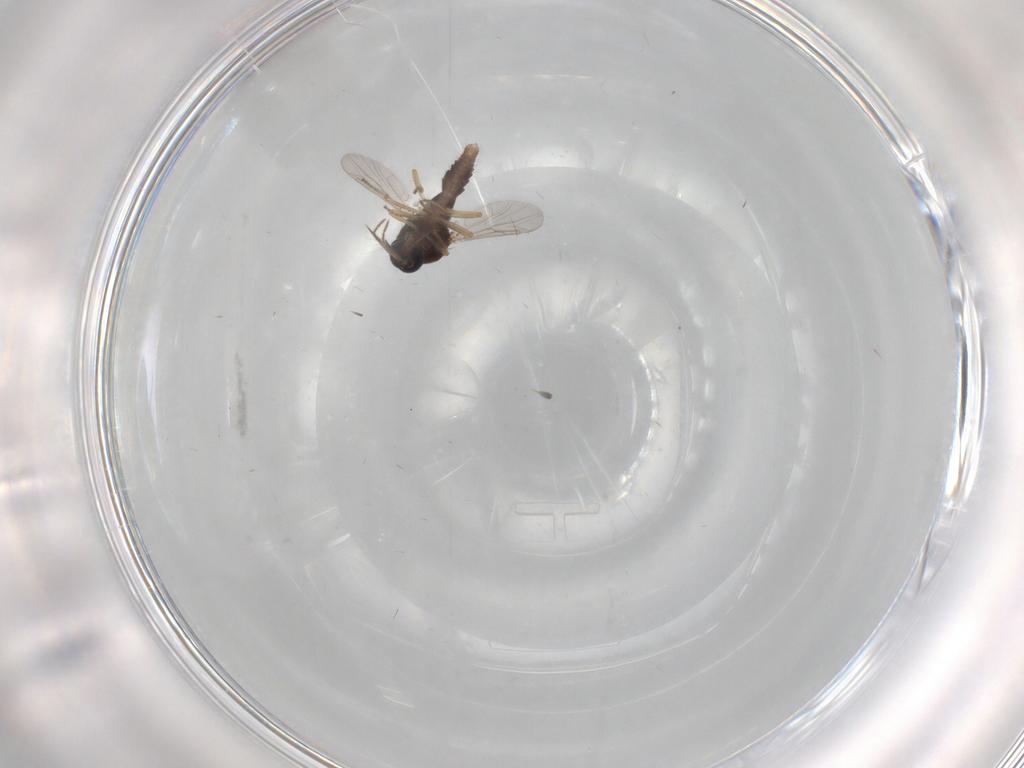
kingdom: Animalia
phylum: Arthropoda
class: Insecta
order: Diptera
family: Ceratopogonidae
